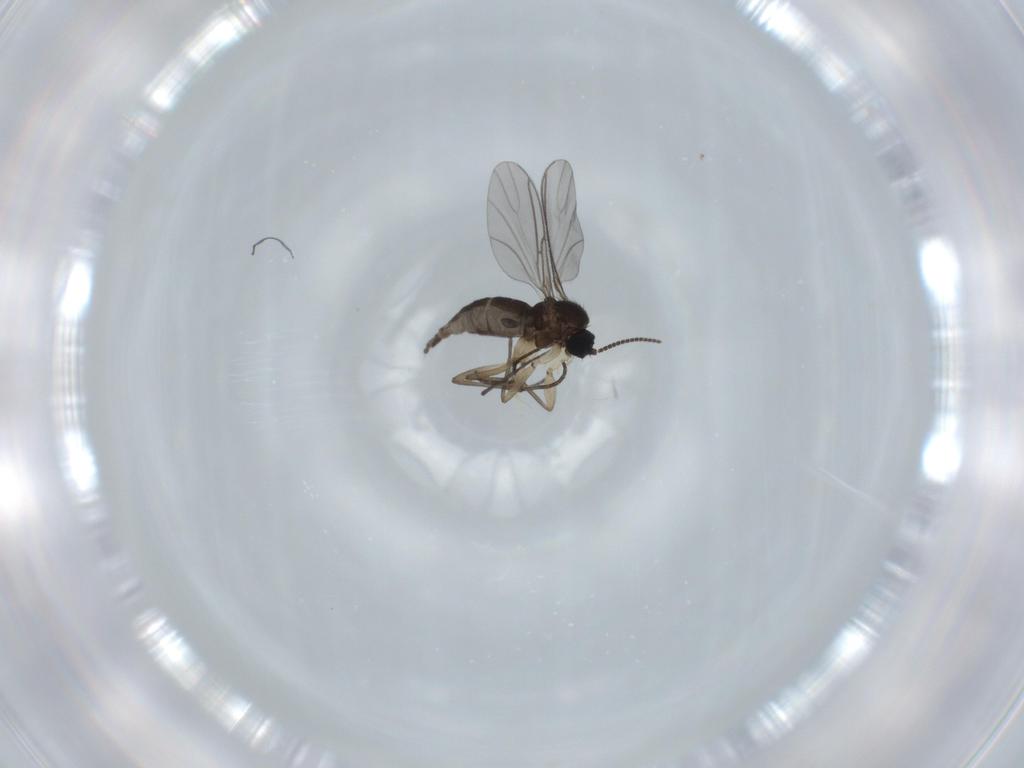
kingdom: Animalia
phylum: Arthropoda
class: Insecta
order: Diptera
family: Sciaridae
